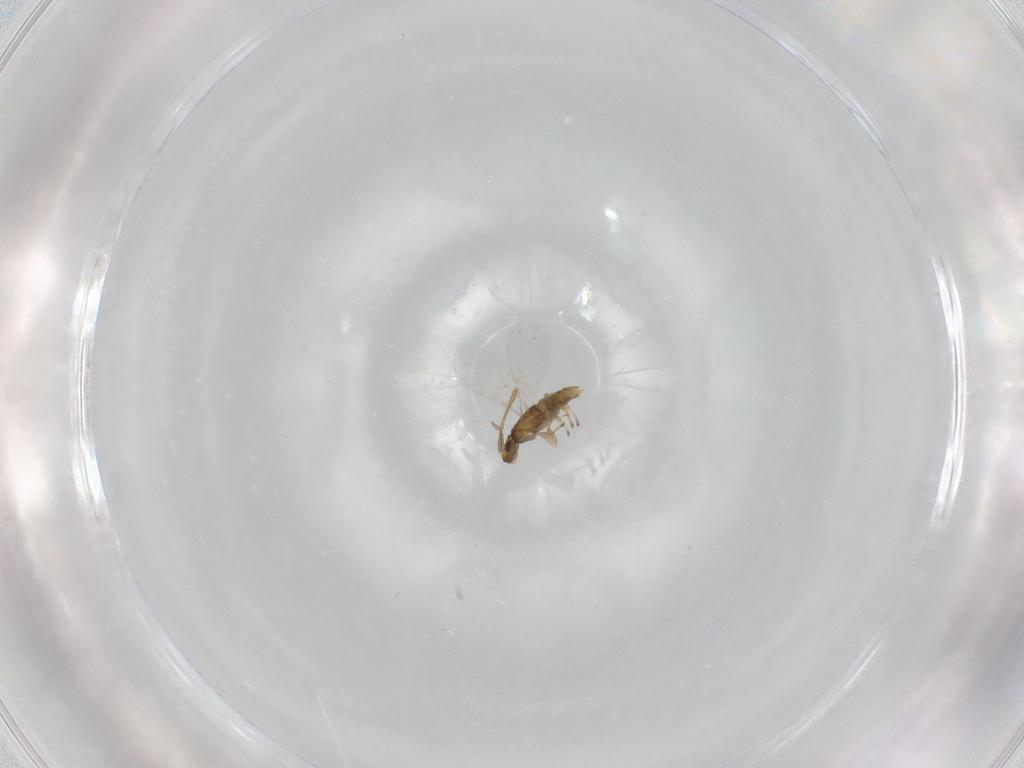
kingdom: Animalia
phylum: Arthropoda
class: Insecta
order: Hymenoptera
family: Encyrtidae
